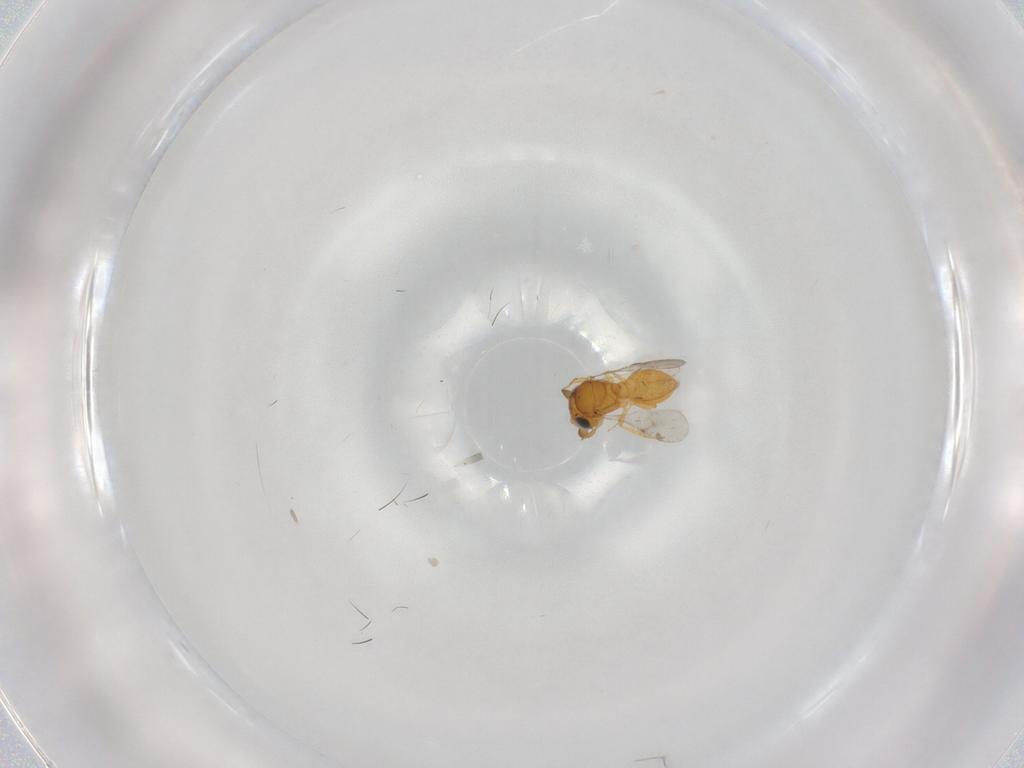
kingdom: Animalia
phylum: Arthropoda
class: Insecta
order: Hymenoptera
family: Scelionidae
